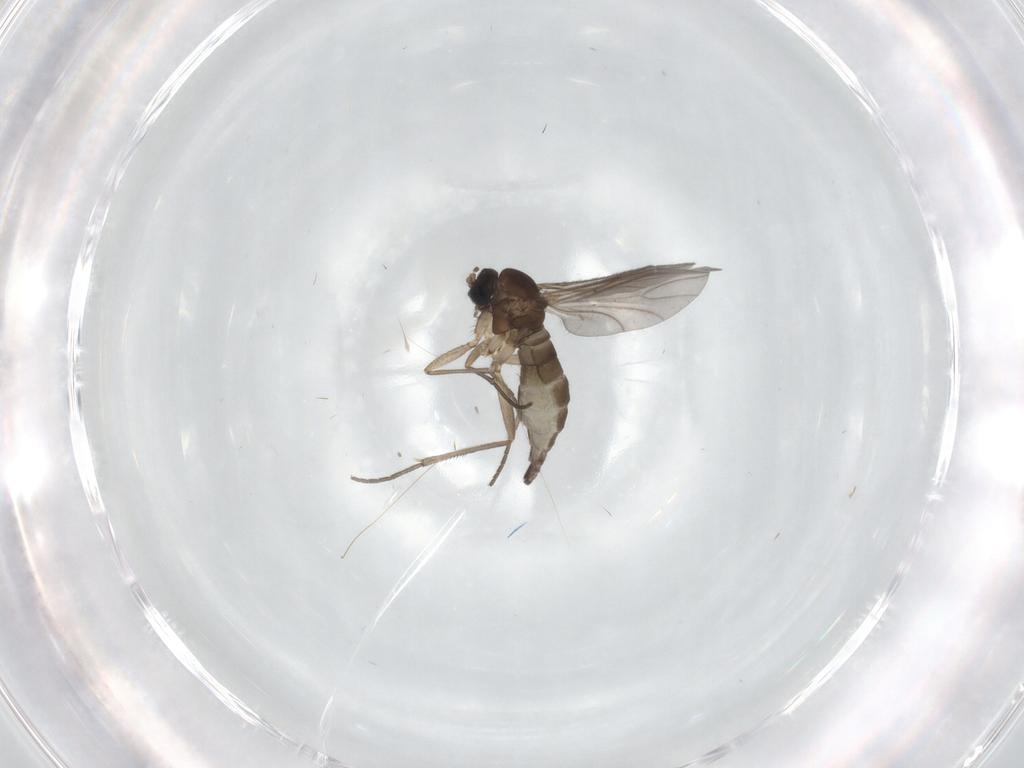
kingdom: Animalia
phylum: Arthropoda
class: Insecta
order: Diptera
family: Sciaridae
